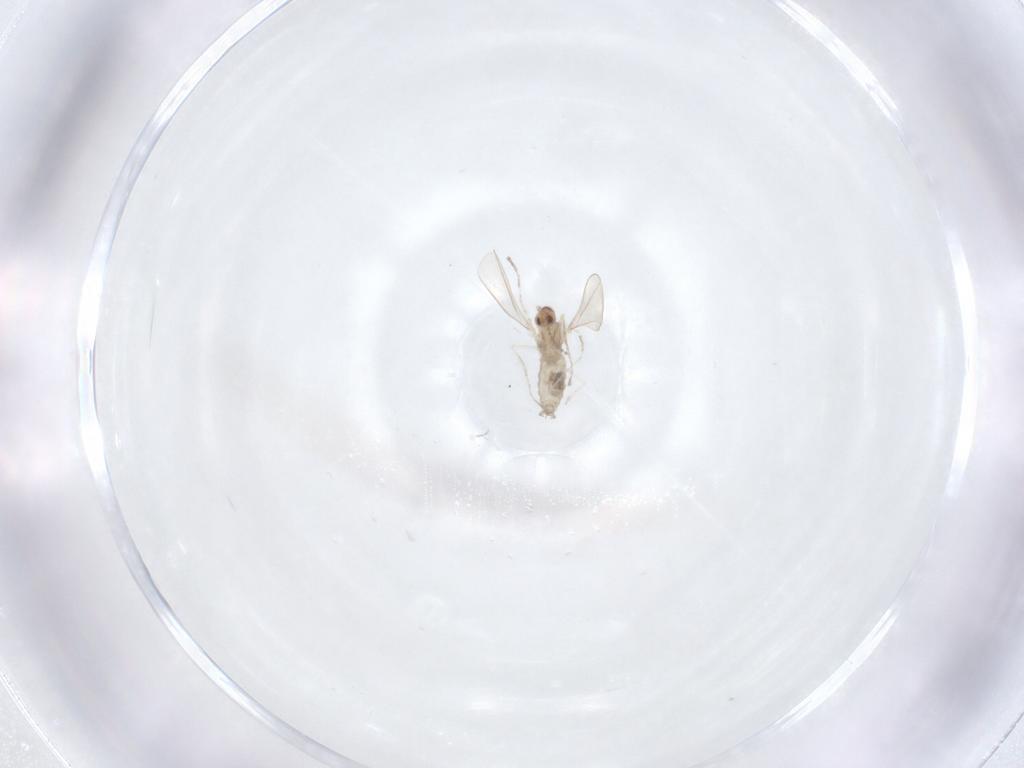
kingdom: Animalia
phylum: Arthropoda
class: Insecta
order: Diptera
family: Cecidomyiidae
